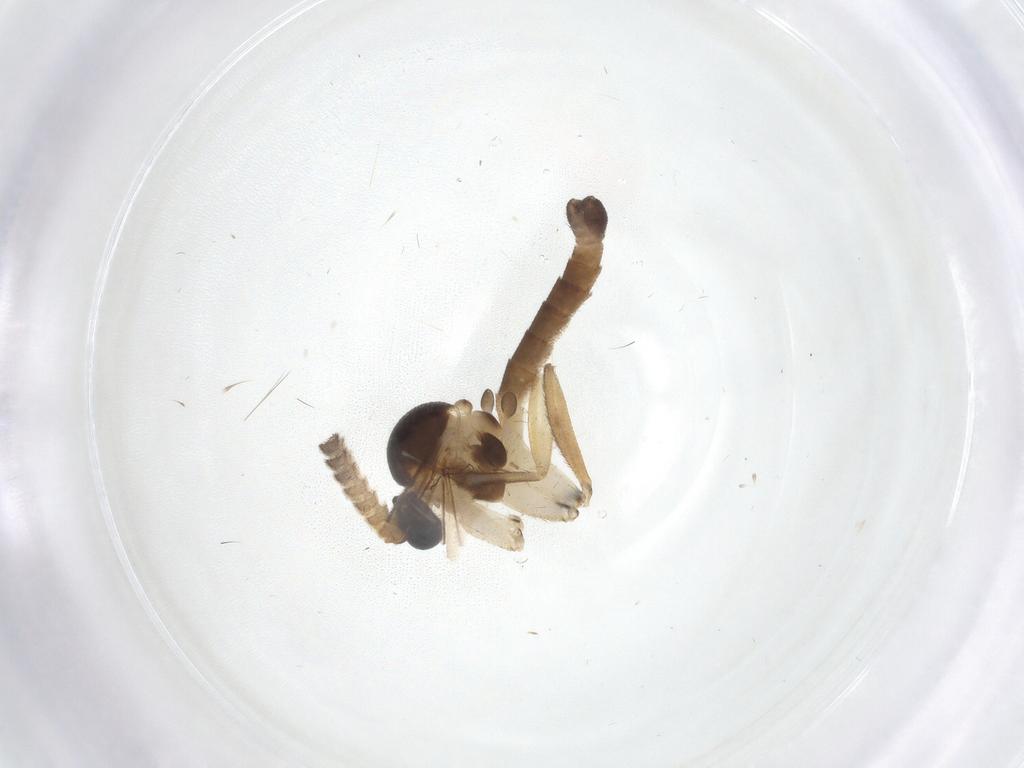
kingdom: Animalia
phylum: Arthropoda
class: Insecta
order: Diptera
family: Mycetophilidae
